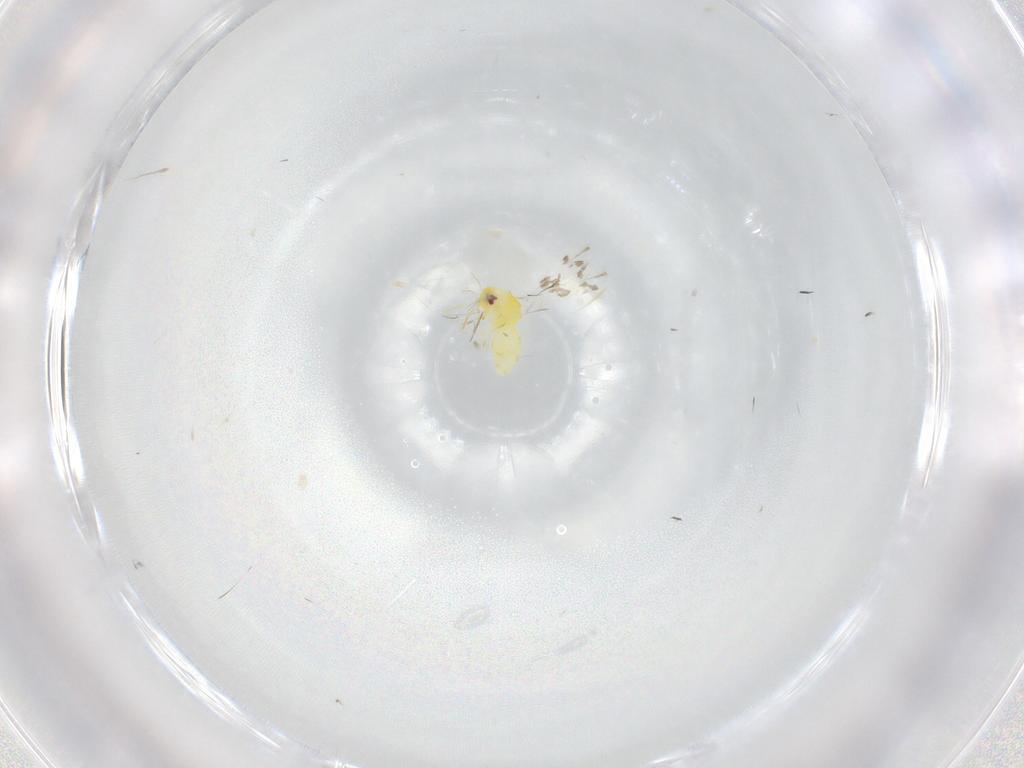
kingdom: Animalia
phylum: Arthropoda
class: Insecta
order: Hemiptera
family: Aleyrodidae
